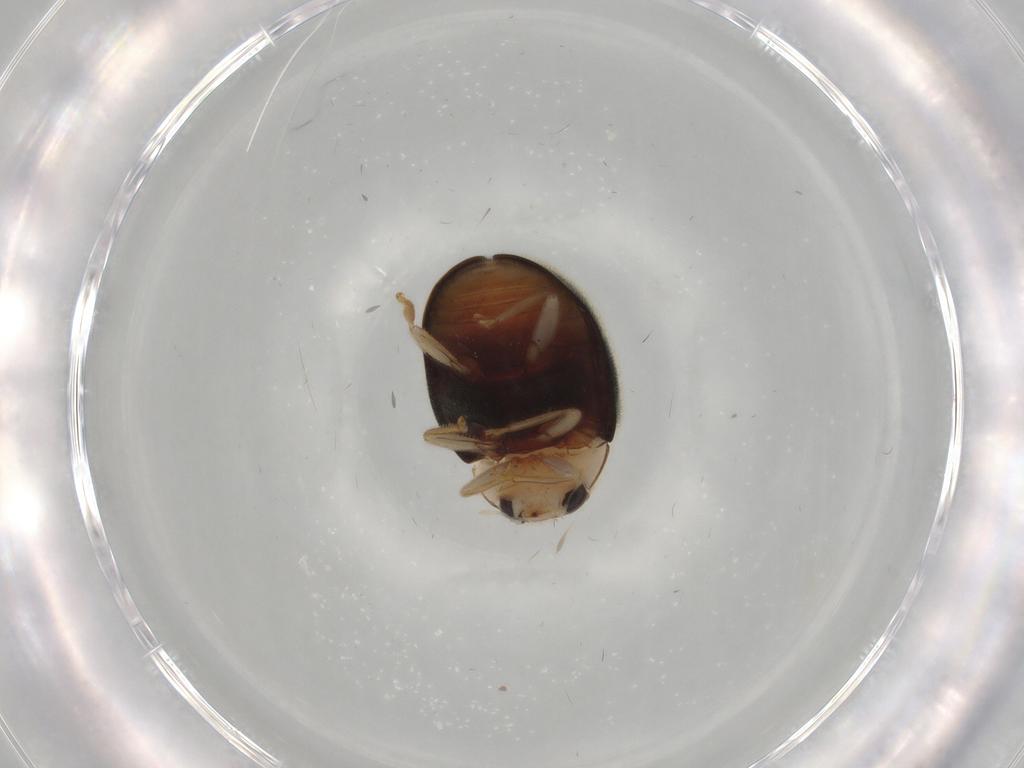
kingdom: Animalia
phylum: Arthropoda
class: Insecta
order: Coleoptera
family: Coccinellidae
